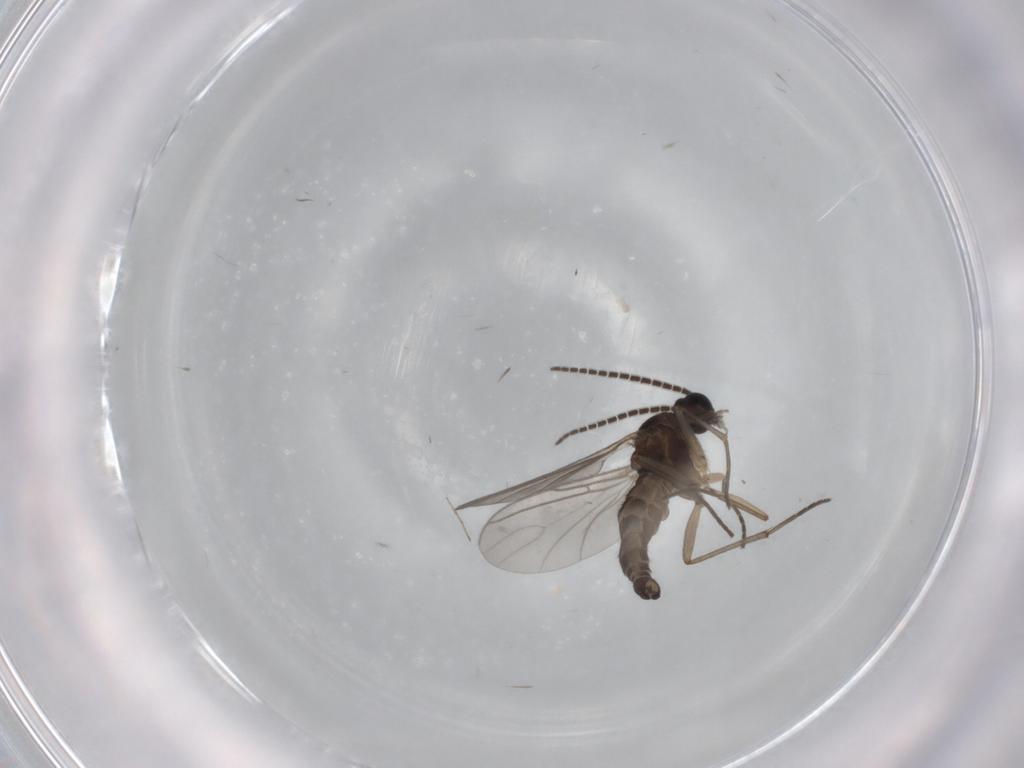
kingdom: Animalia
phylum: Arthropoda
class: Insecta
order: Diptera
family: Sciaridae
